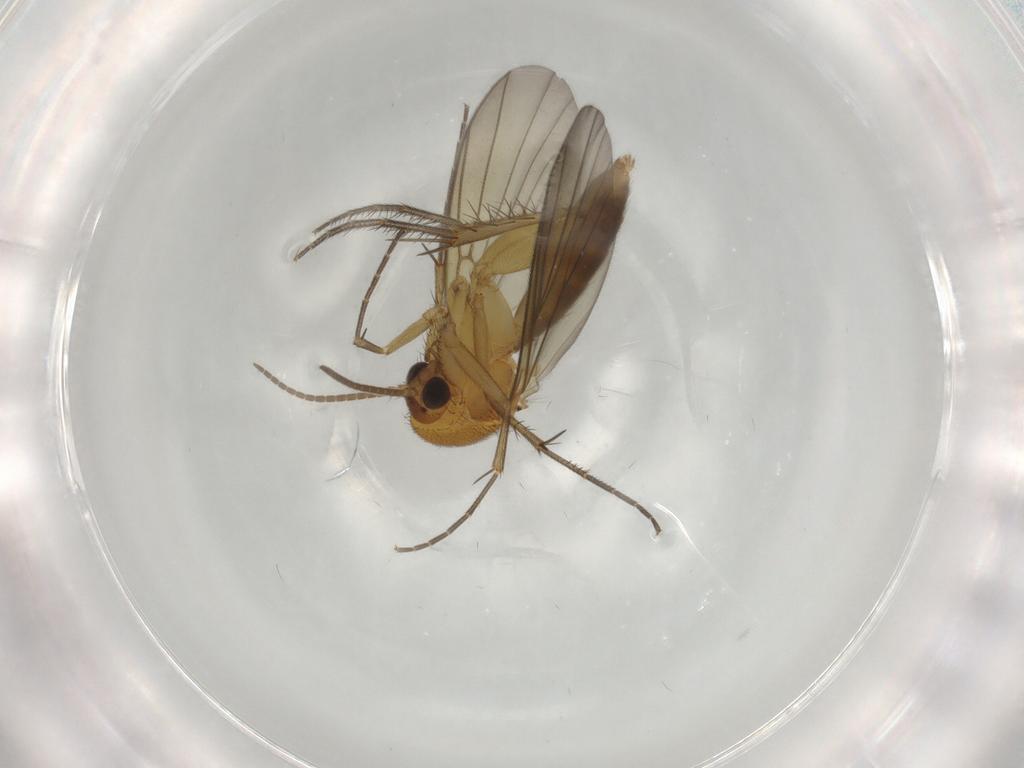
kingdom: Animalia
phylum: Arthropoda
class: Insecta
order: Diptera
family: Mycetophilidae
